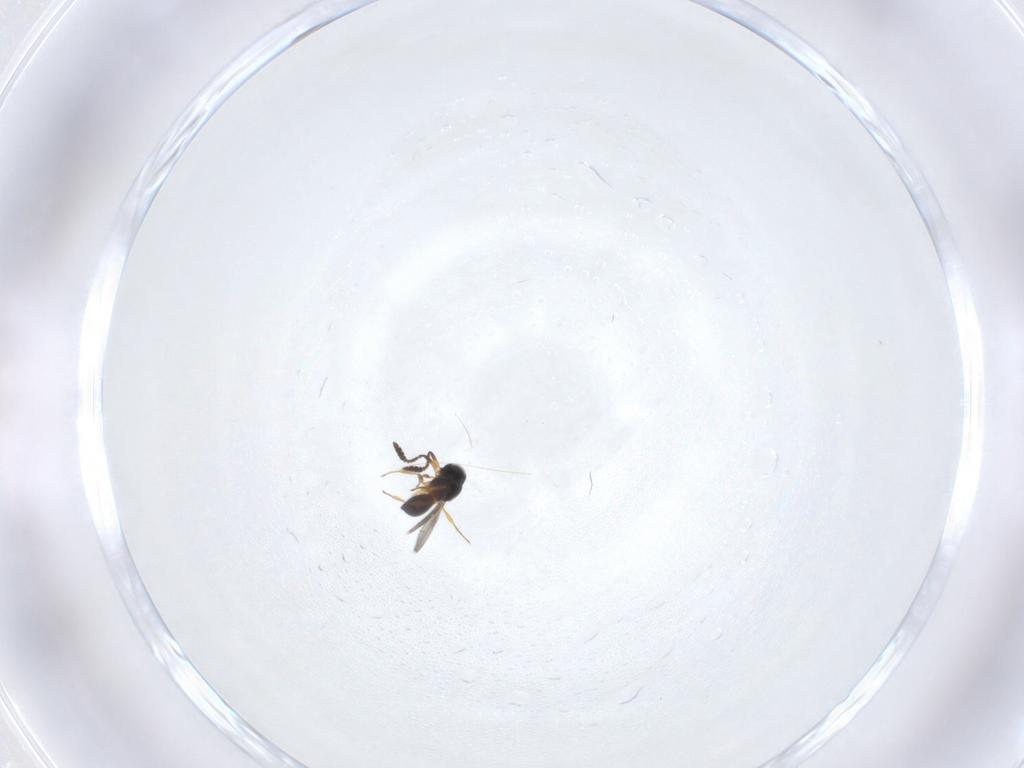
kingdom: Animalia
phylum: Arthropoda
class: Insecta
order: Hymenoptera
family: Scelionidae
